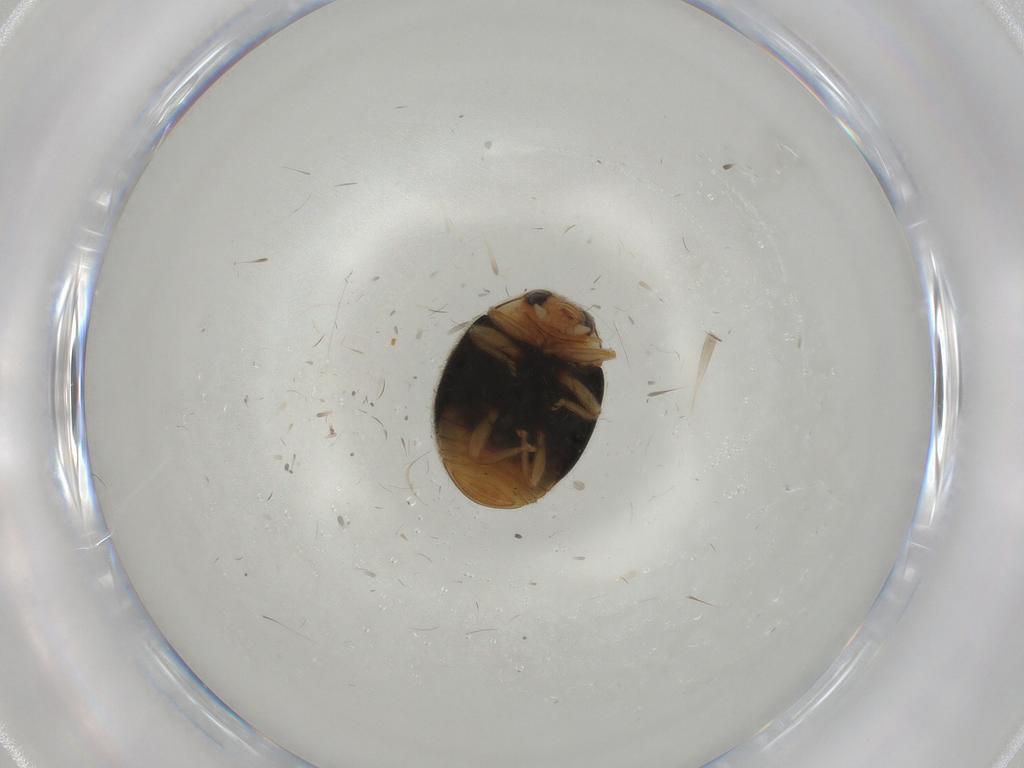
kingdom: Animalia
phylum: Arthropoda
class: Insecta
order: Coleoptera
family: Coccinellidae
